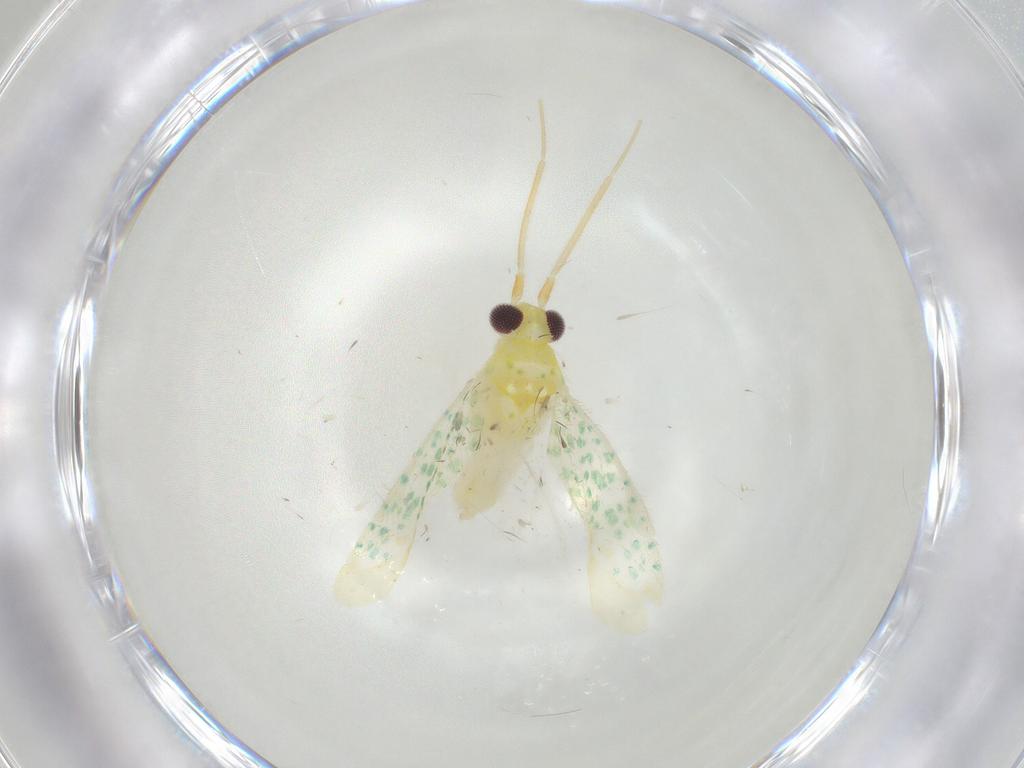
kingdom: Animalia
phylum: Arthropoda
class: Insecta
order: Hemiptera
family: Miridae
